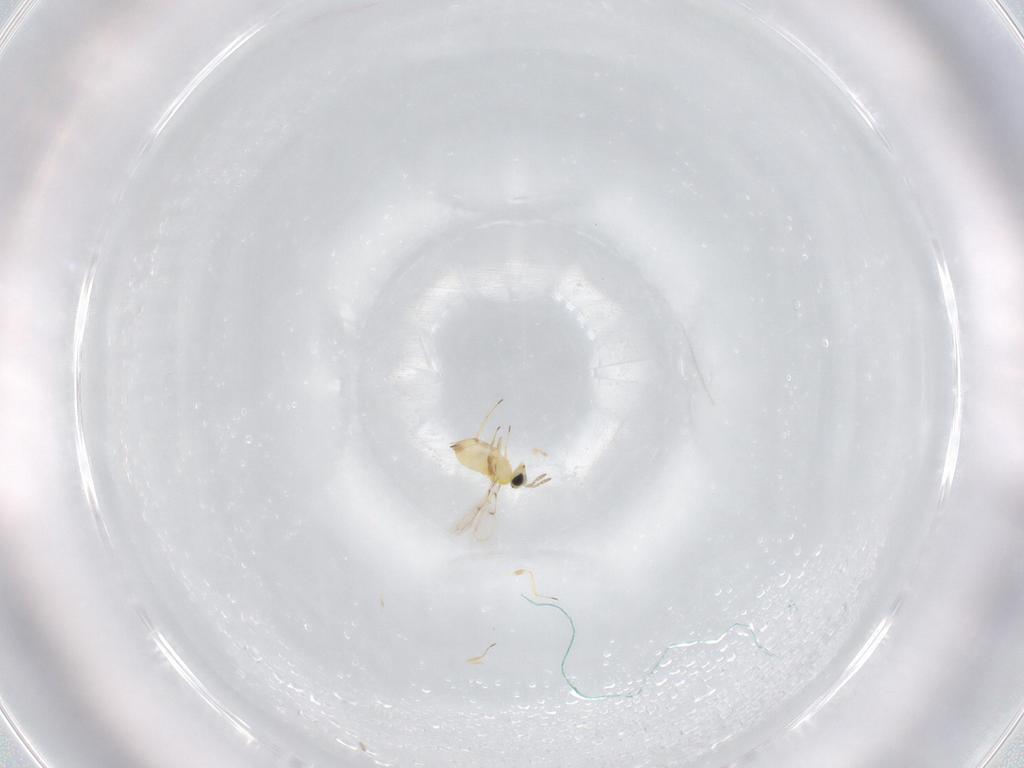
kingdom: Animalia
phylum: Arthropoda
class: Insecta
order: Hymenoptera
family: Trichogrammatidae
